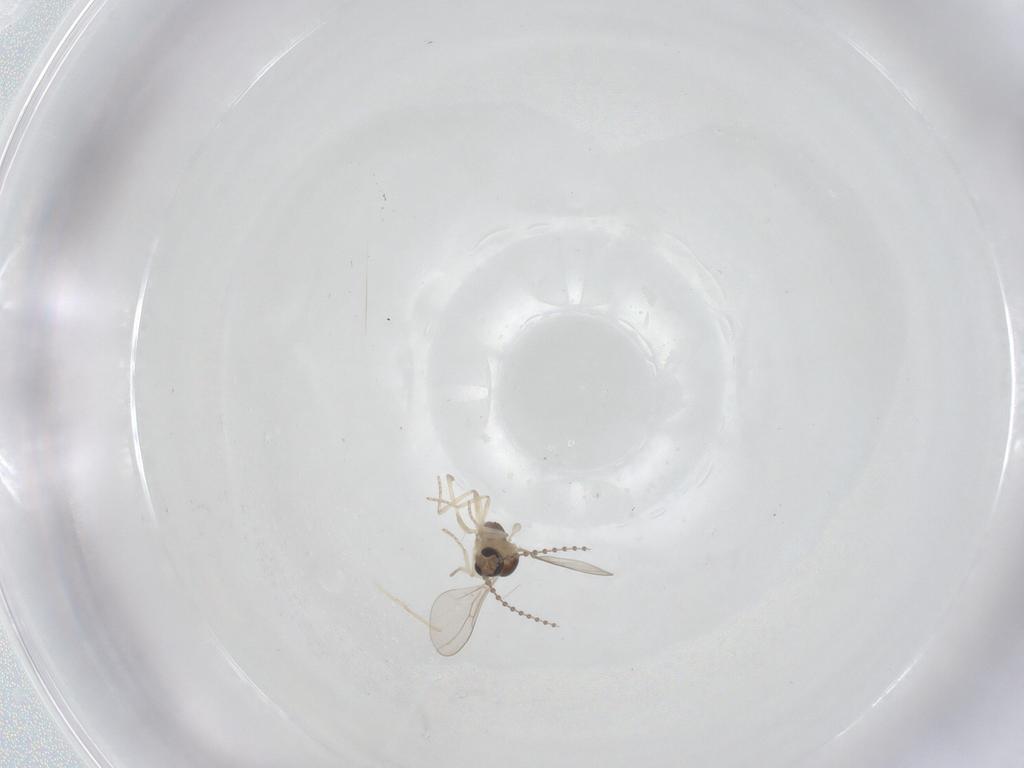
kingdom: Animalia
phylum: Arthropoda
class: Insecta
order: Diptera
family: Cecidomyiidae
